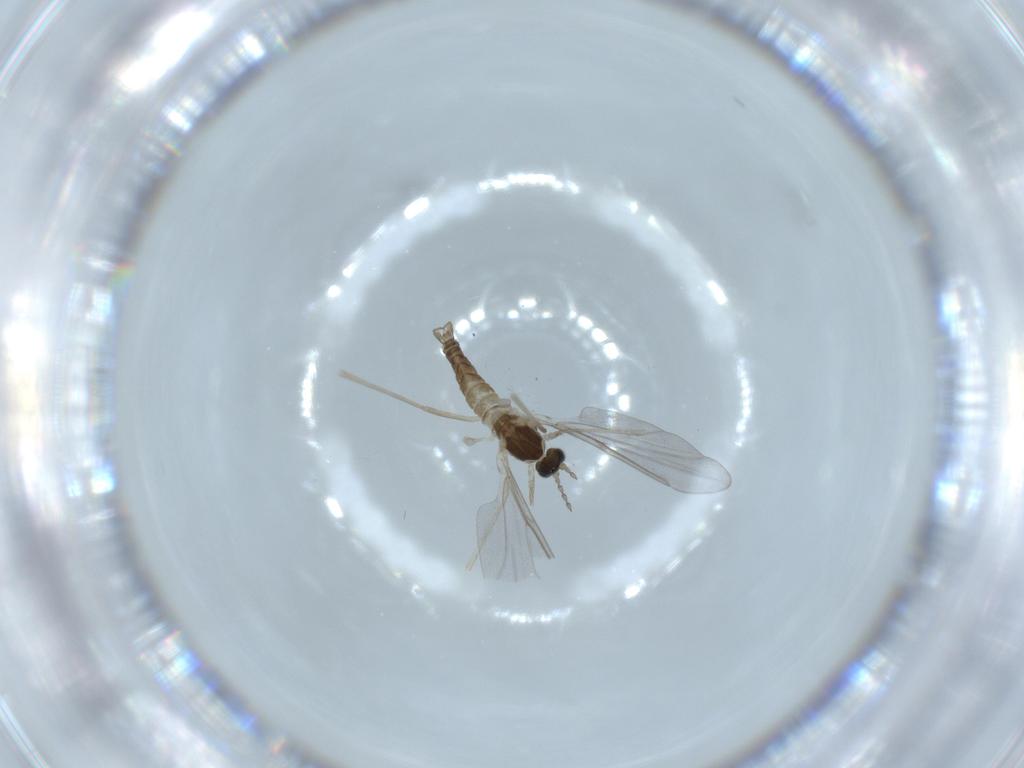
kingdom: Animalia
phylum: Arthropoda
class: Insecta
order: Diptera
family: Cecidomyiidae
